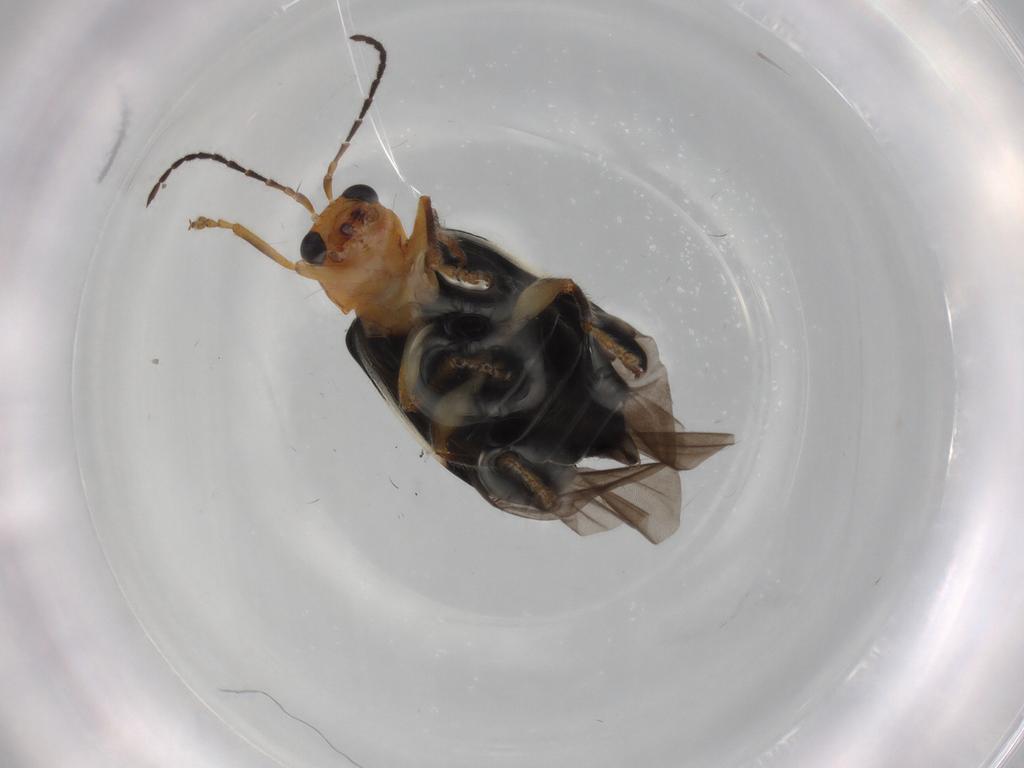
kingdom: Animalia
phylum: Arthropoda
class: Insecta
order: Coleoptera
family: Chrysomelidae
